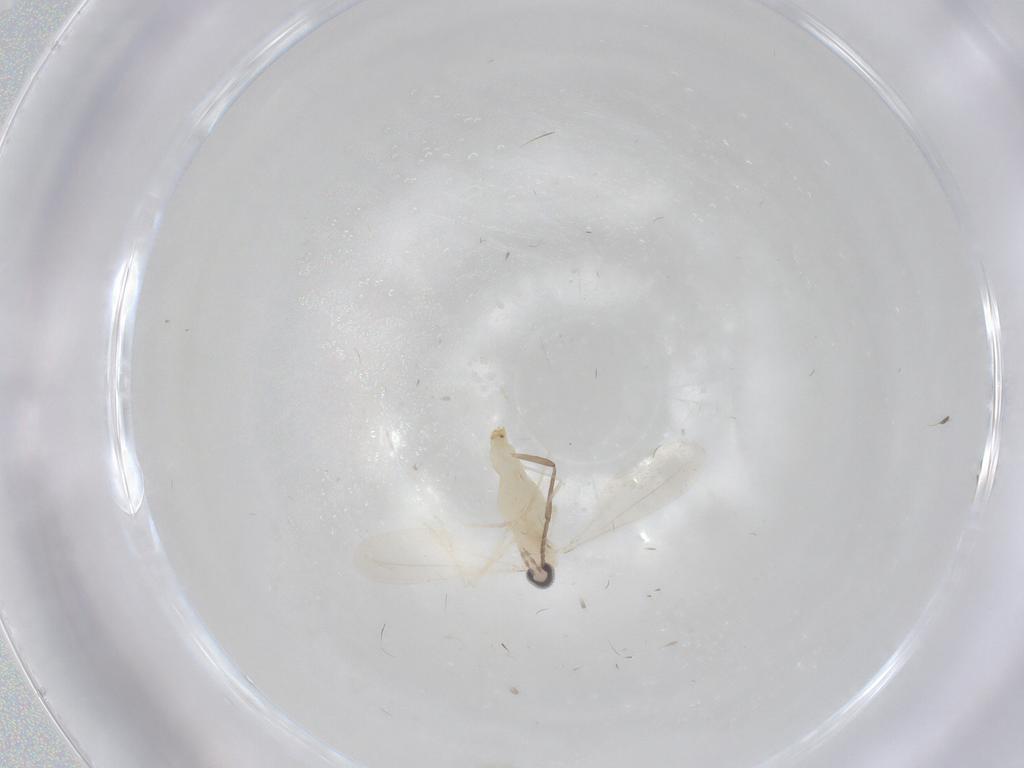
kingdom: Animalia
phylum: Arthropoda
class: Insecta
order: Diptera
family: Cecidomyiidae
